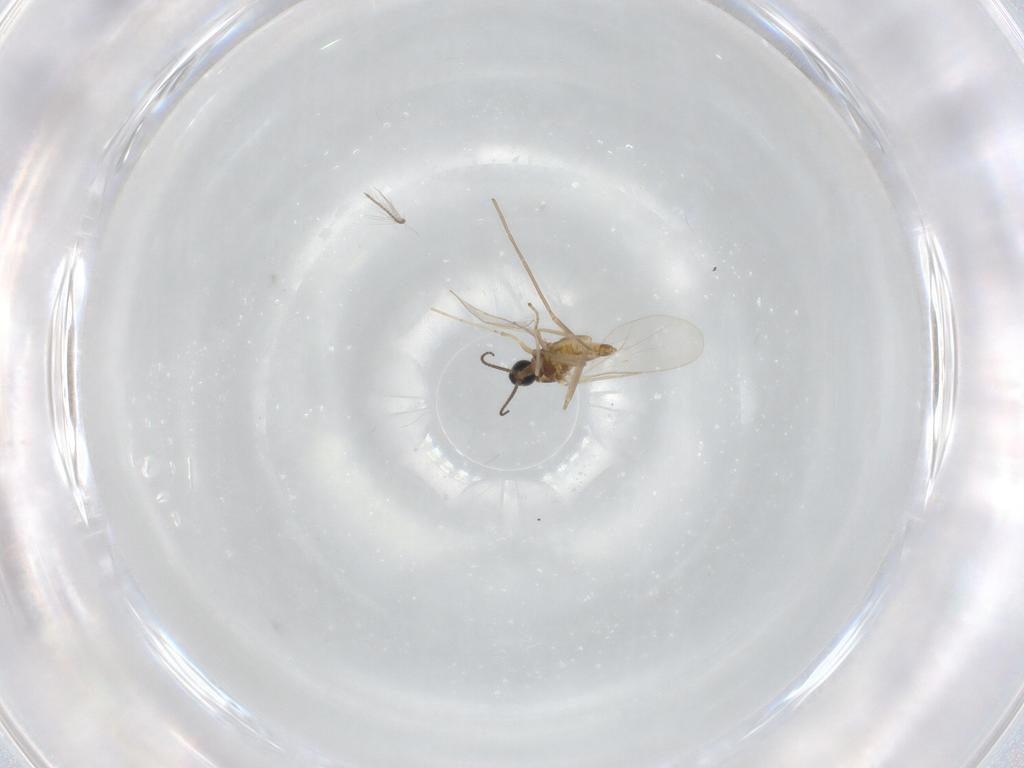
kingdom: Animalia
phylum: Arthropoda
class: Insecta
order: Diptera
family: Cecidomyiidae
